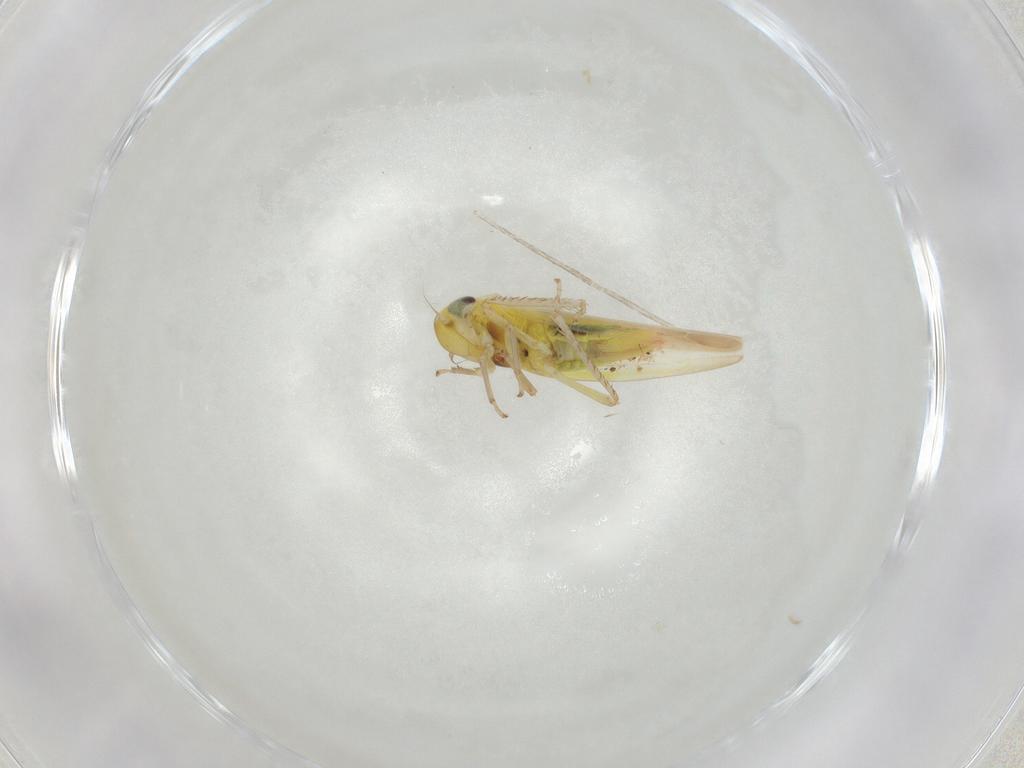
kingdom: Animalia
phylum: Arthropoda
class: Insecta
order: Hemiptera
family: Cicadellidae
